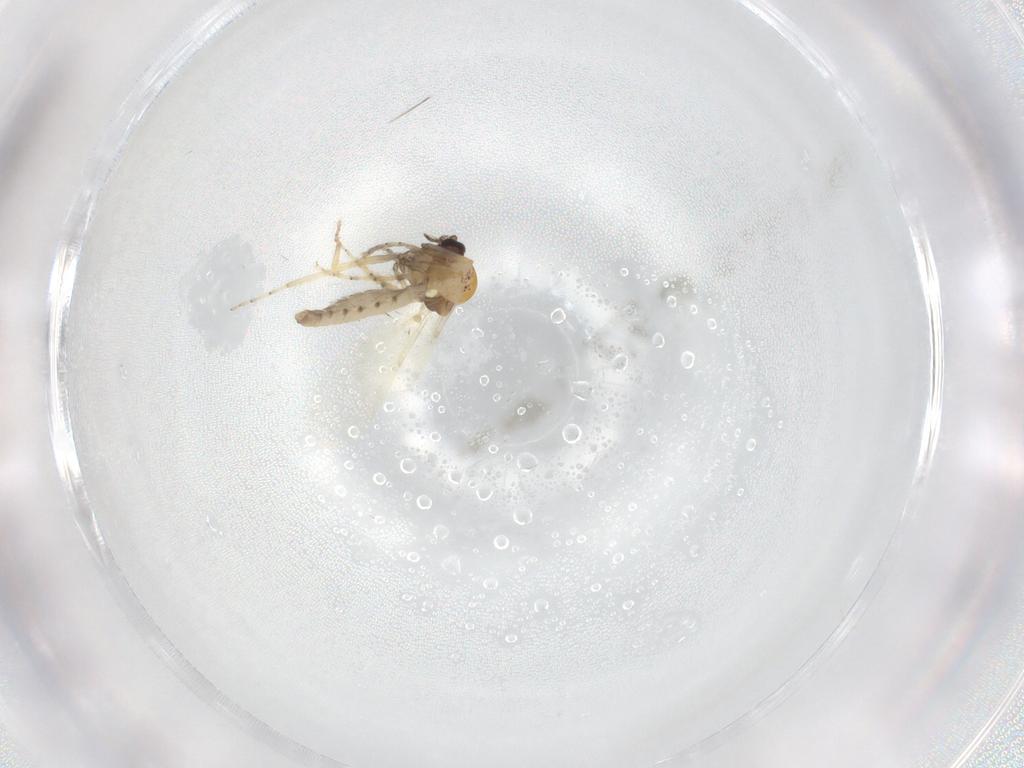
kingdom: Animalia
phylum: Arthropoda
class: Insecta
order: Diptera
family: Ceratopogonidae
